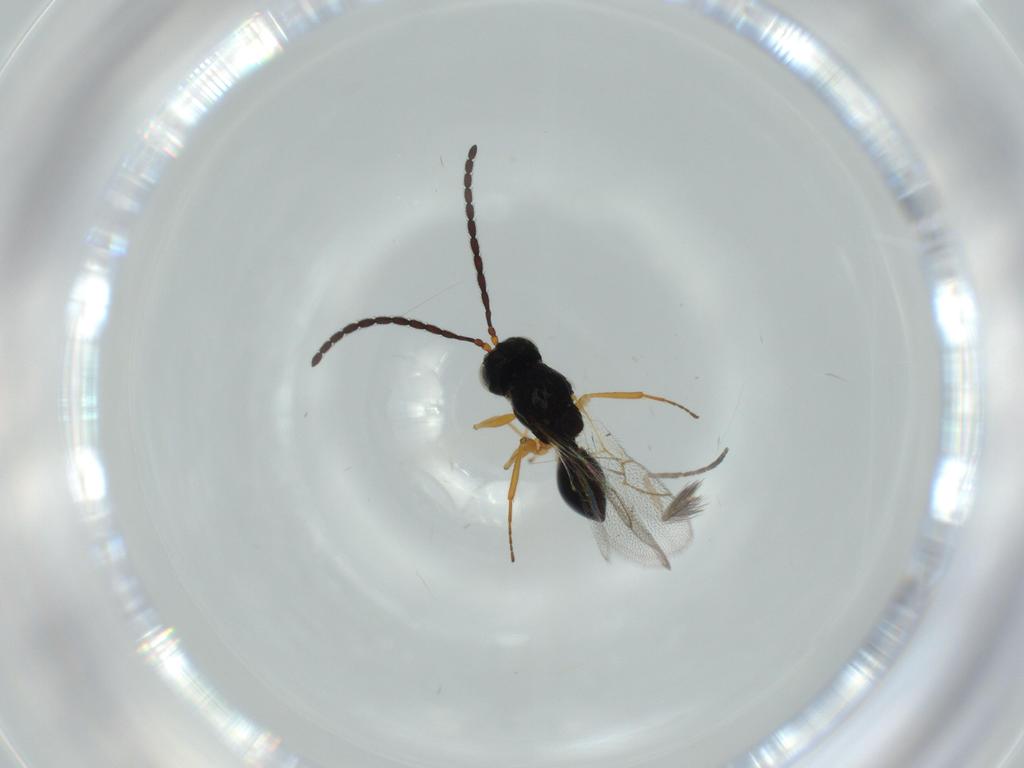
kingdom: Animalia
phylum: Arthropoda
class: Insecta
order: Hymenoptera
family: Figitidae
